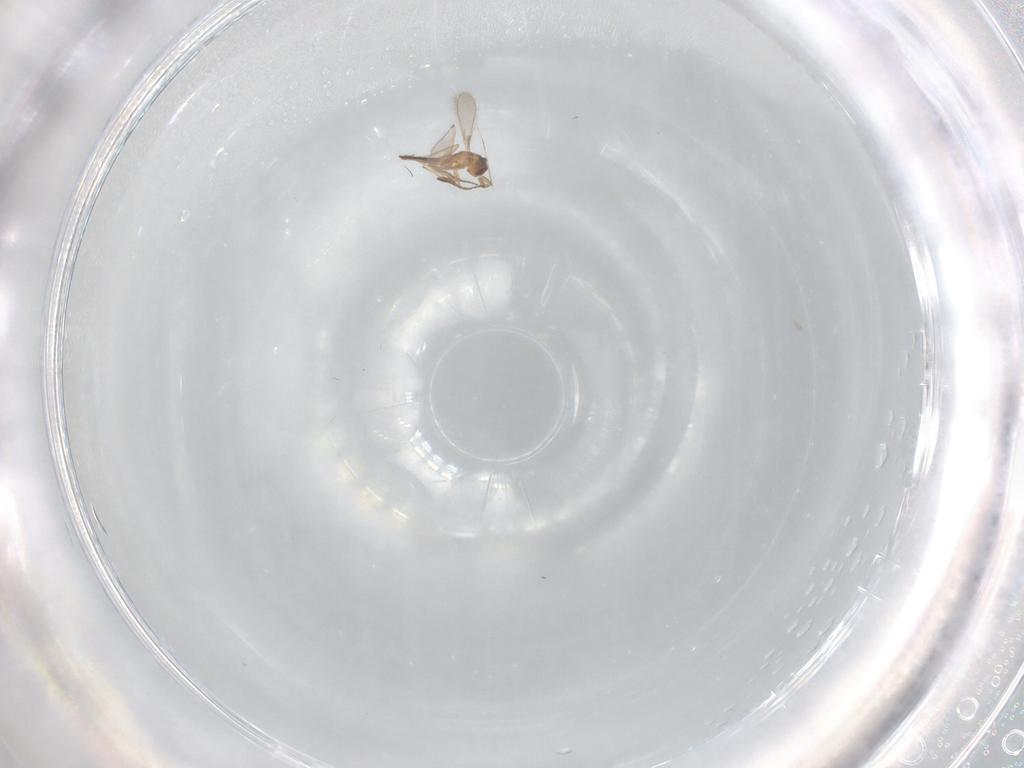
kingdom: Animalia
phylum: Arthropoda
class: Insecta
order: Hymenoptera
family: Mymaridae
